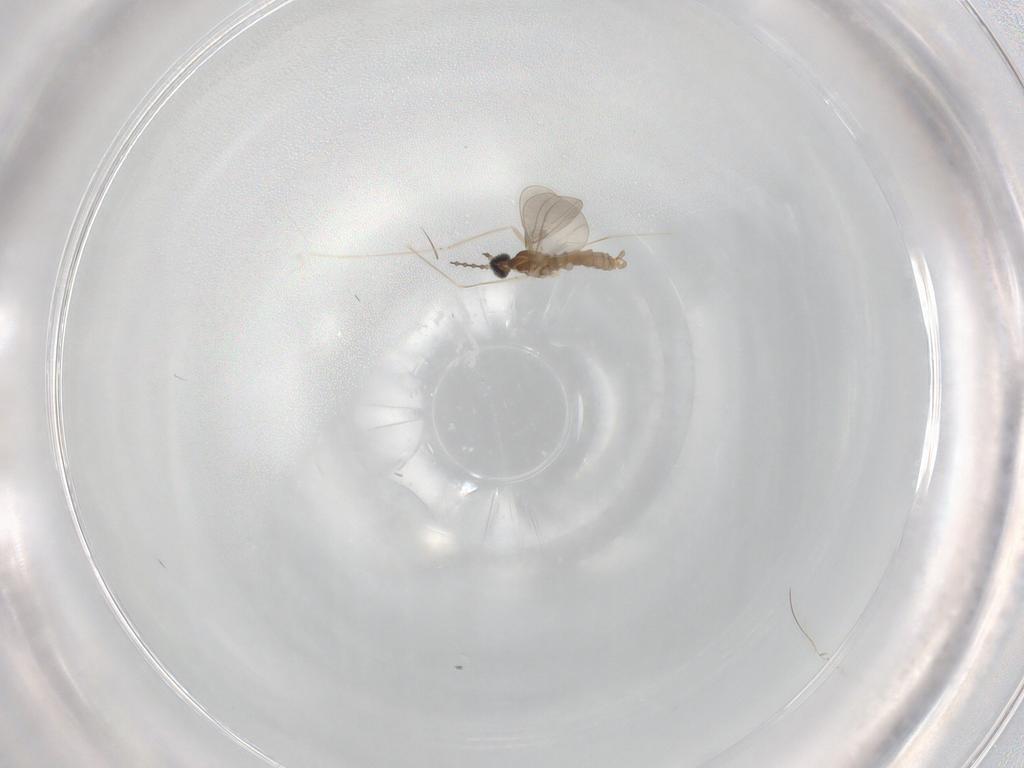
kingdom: Animalia
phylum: Arthropoda
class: Insecta
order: Diptera
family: Cecidomyiidae
